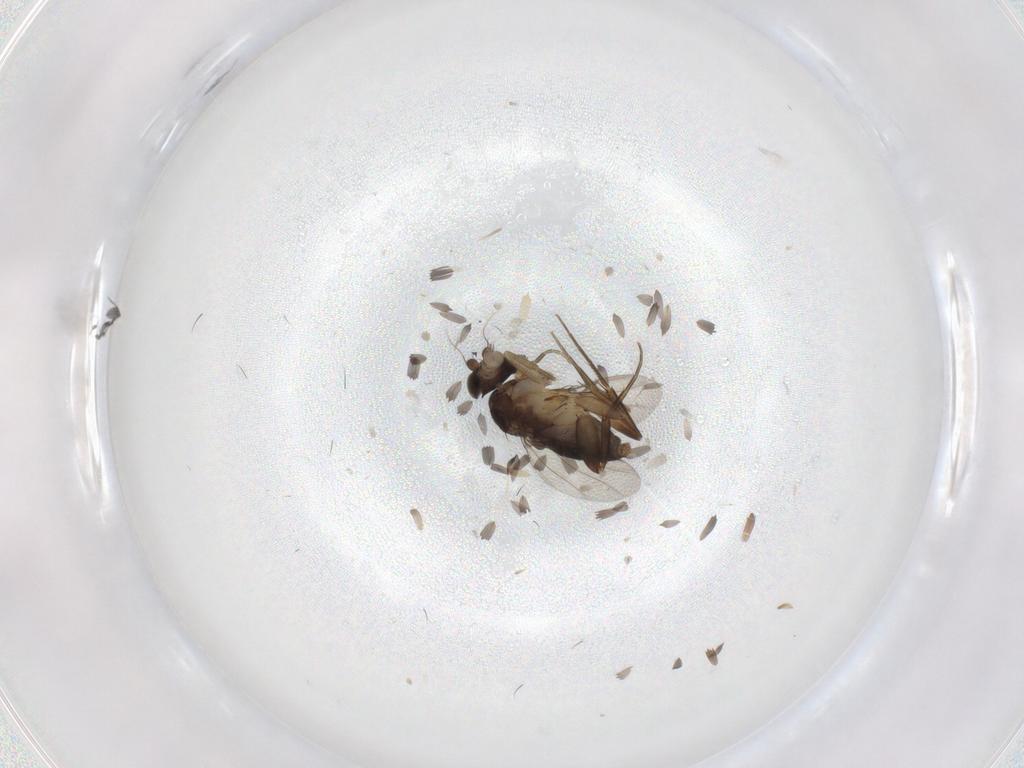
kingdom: Animalia
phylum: Arthropoda
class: Insecta
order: Diptera
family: Phoridae
